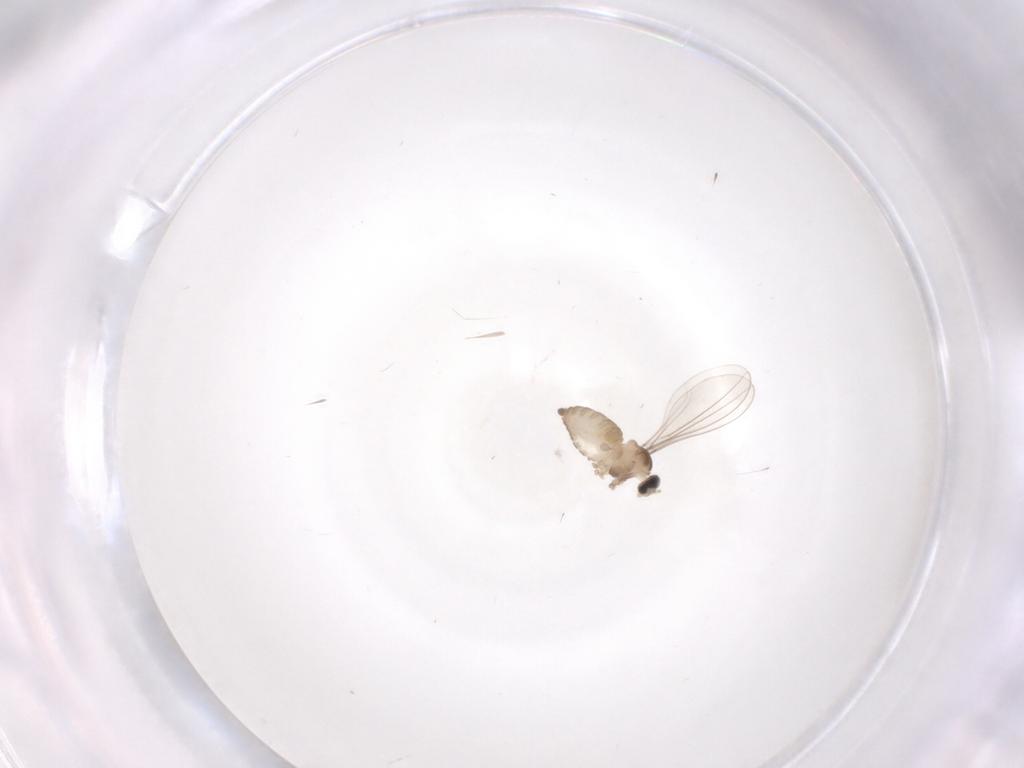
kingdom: Animalia
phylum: Arthropoda
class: Insecta
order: Diptera
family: Cecidomyiidae
